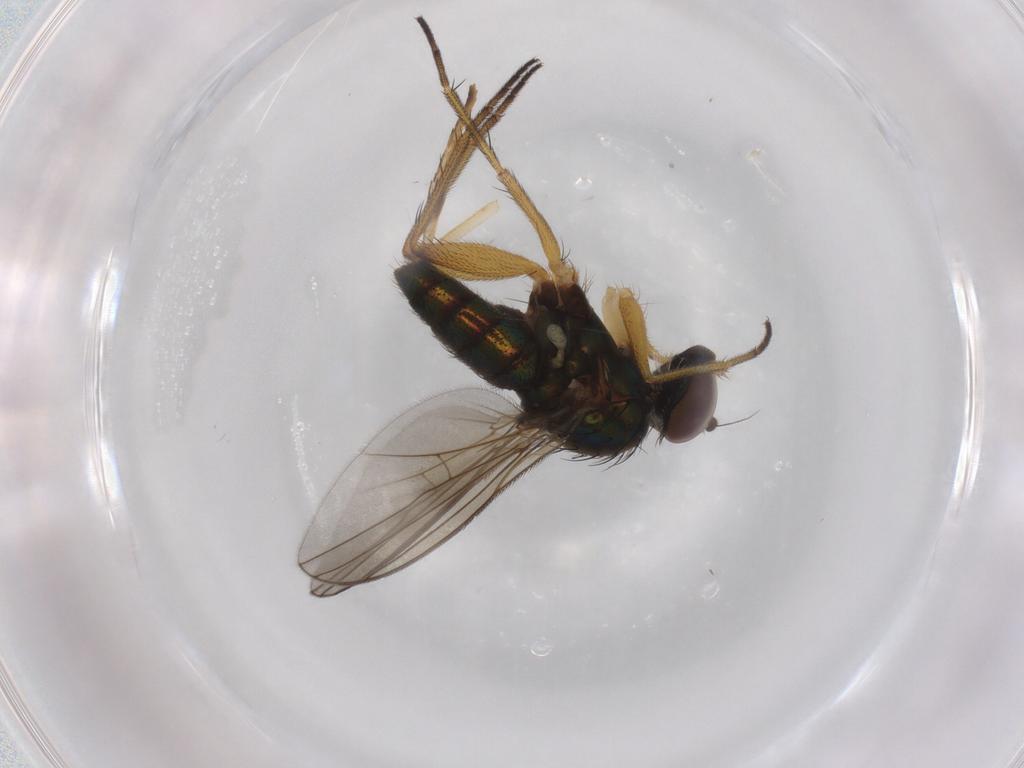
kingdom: Animalia
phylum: Arthropoda
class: Insecta
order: Diptera
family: Dolichopodidae
